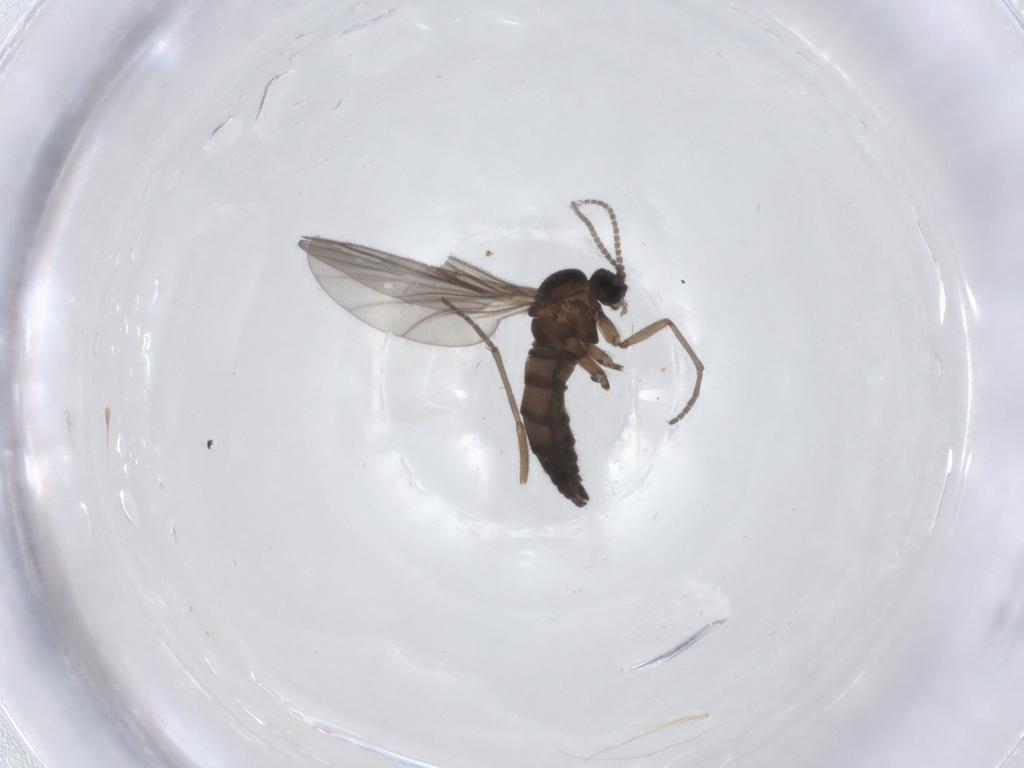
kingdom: Animalia
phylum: Arthropoda
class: Insecta
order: Diptera
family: Sciaridae
